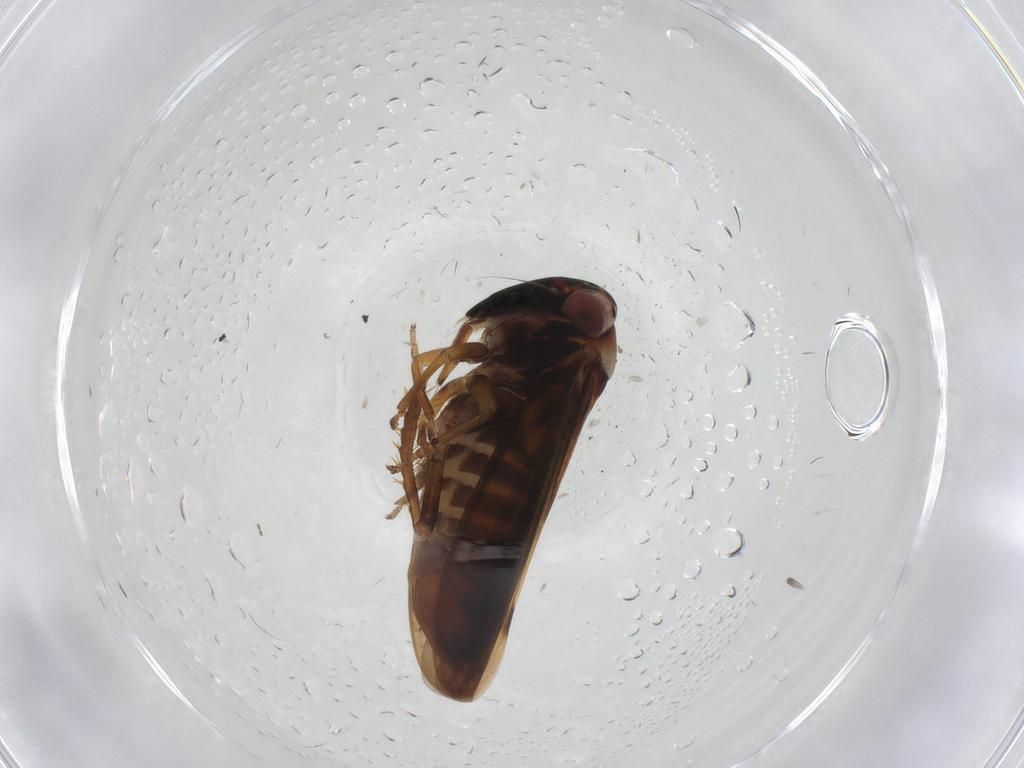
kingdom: Animalia
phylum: Arthropoda
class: Insecta
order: Hemiptera
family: Cicadellidae
